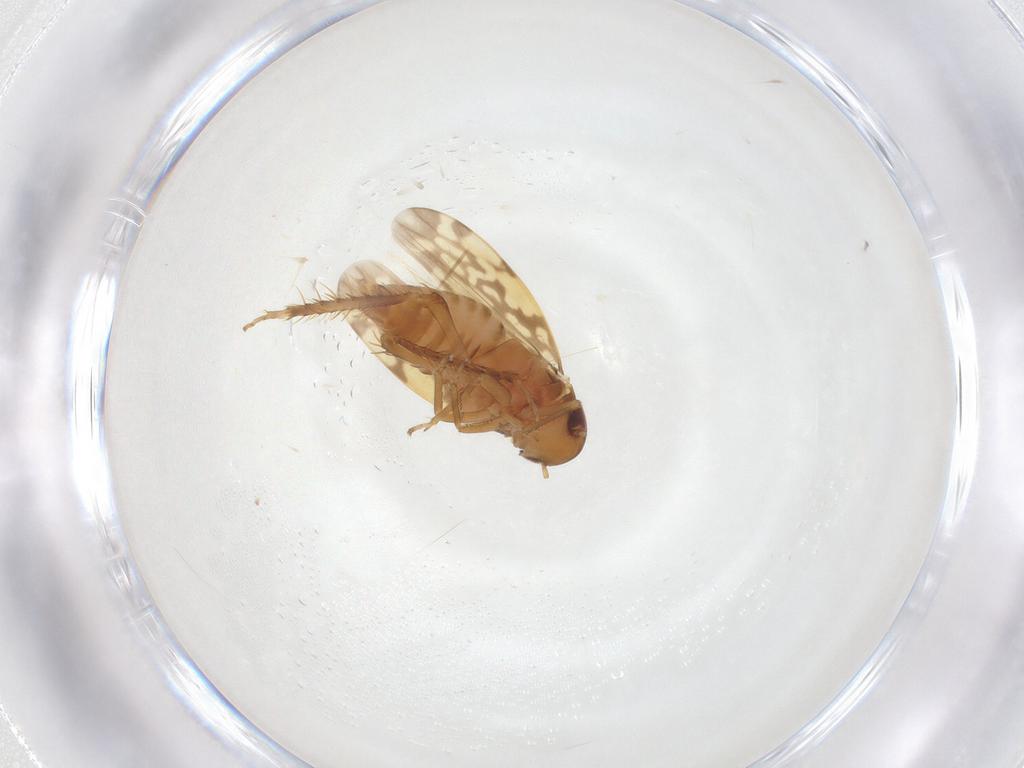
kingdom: Animalia
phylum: Arthropoda
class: Insecta
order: Hemiptera
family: Cicadellidae
